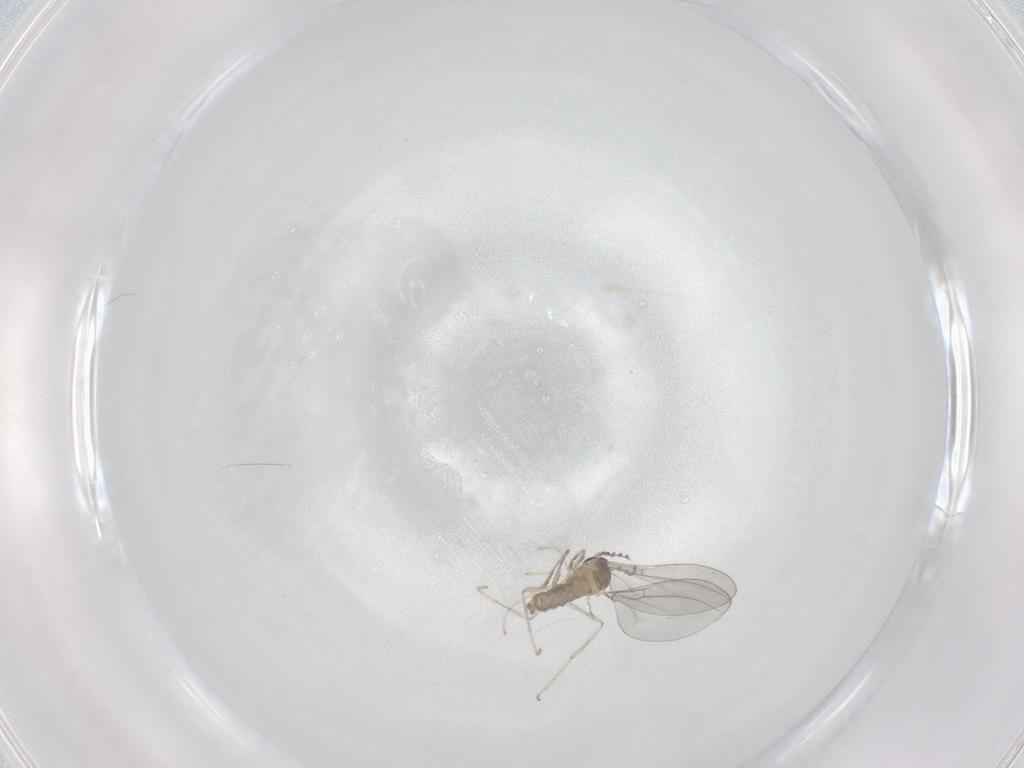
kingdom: Animalia
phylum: Arthropoda
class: Insecta
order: Diptera
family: Cecidomyiidae
